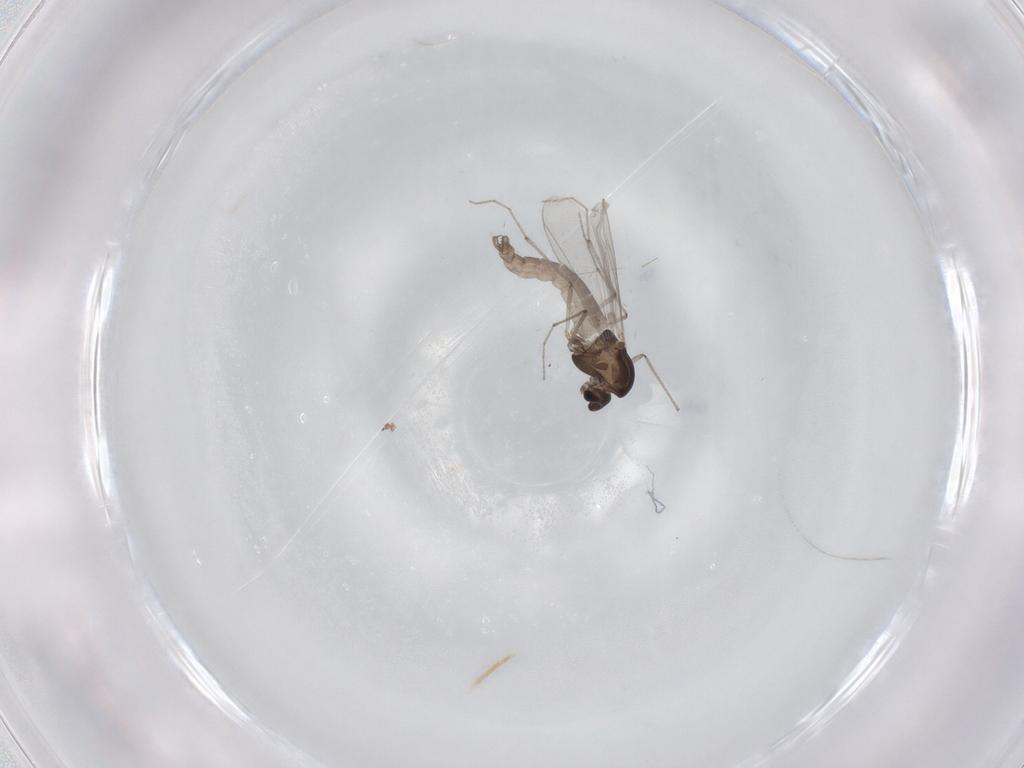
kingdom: Animalia
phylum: Arthropoda
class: Insecta
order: Diptera
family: Chironomidae
